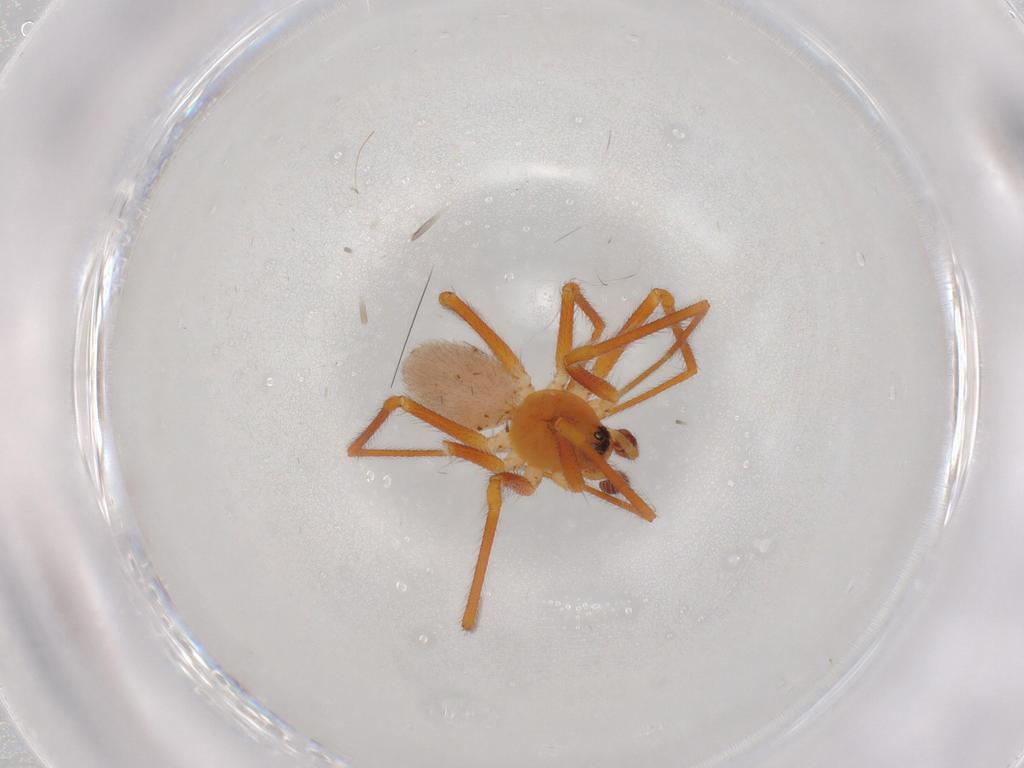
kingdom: Animalia
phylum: Arthropoda
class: Arachnida
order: Araneae
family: Linyphiidae
